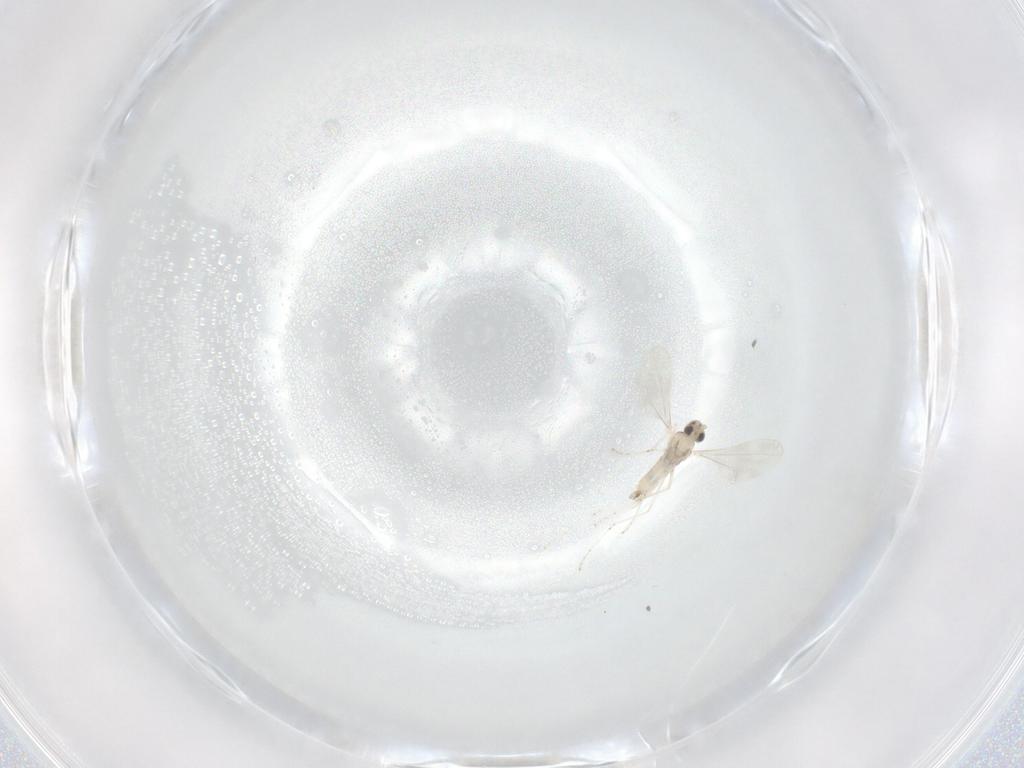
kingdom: Animalia
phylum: Arthropoda
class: Insecta
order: Diptera
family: Cecidomyiidae
